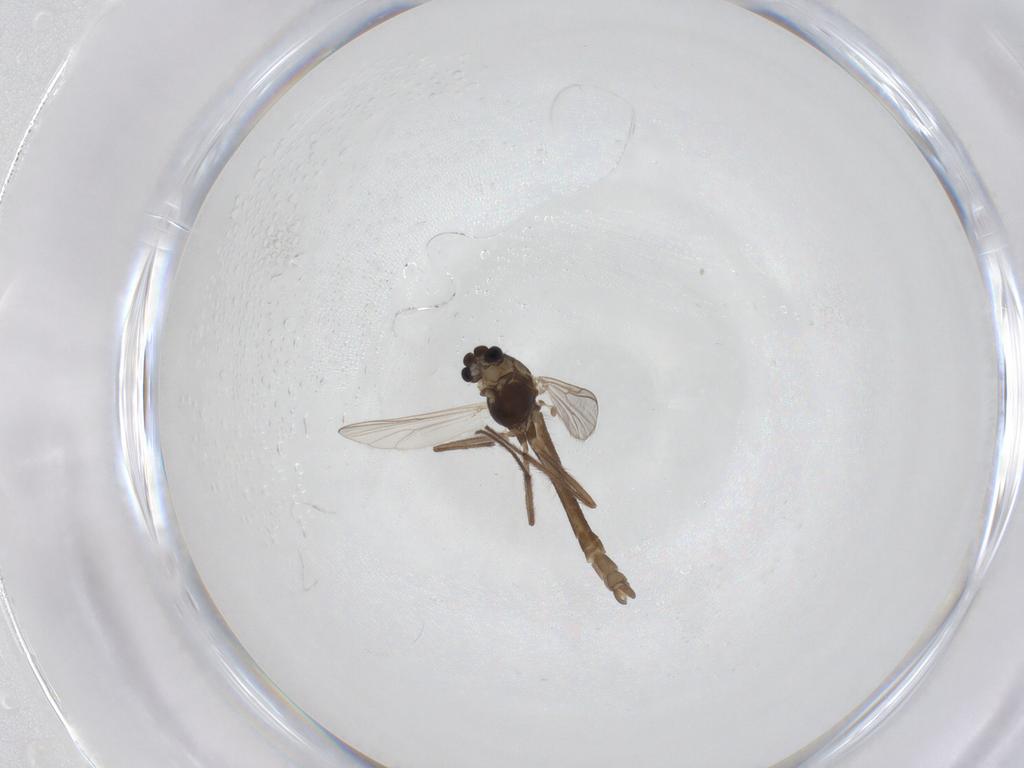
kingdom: Animalia
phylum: Arthropoda
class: Insecta
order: Diptera
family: Chironomidae
